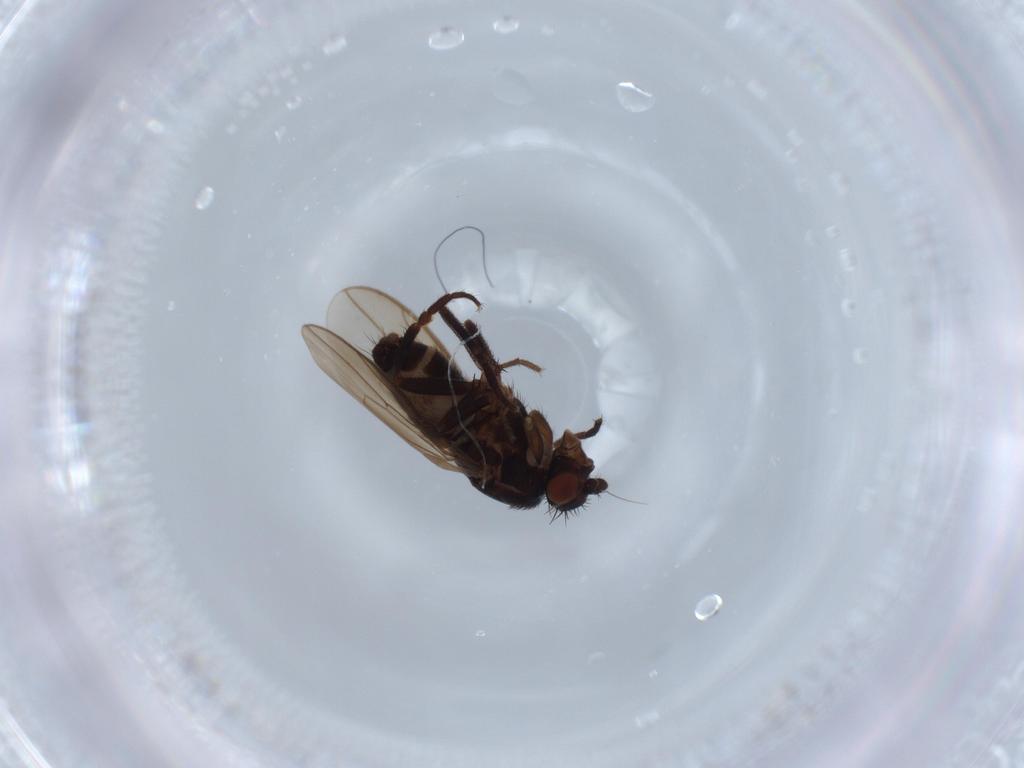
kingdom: Animalia
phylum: Arthropoda
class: Insecta
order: Diptera
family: Sphaeroceridae
